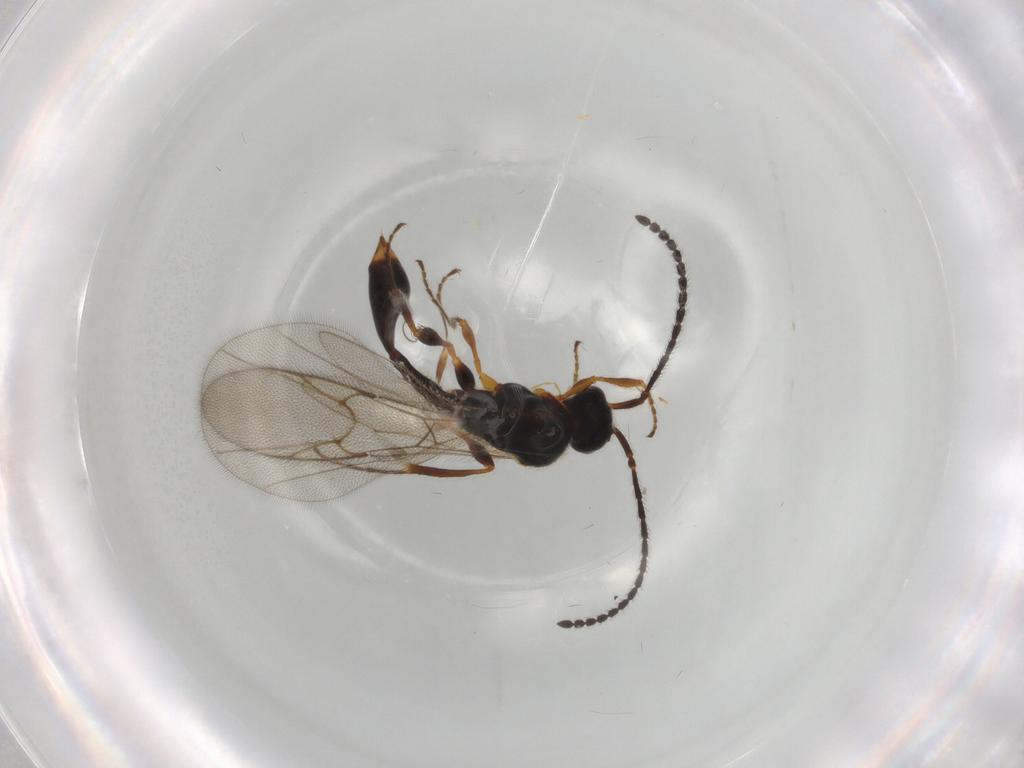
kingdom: Animalia
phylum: Arthropoda
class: Insecta
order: Hymenoptera
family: Diapriidae
